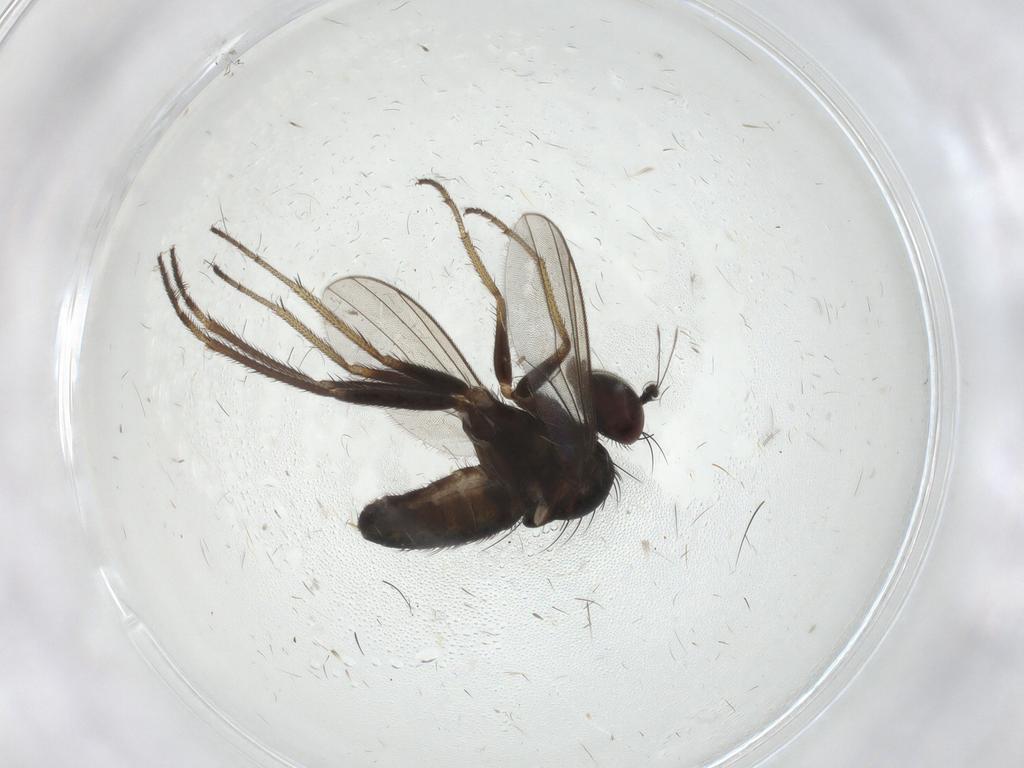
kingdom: Animalia
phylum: Arthropoda
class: Insecta
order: Diptera
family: Dolichopodidae
